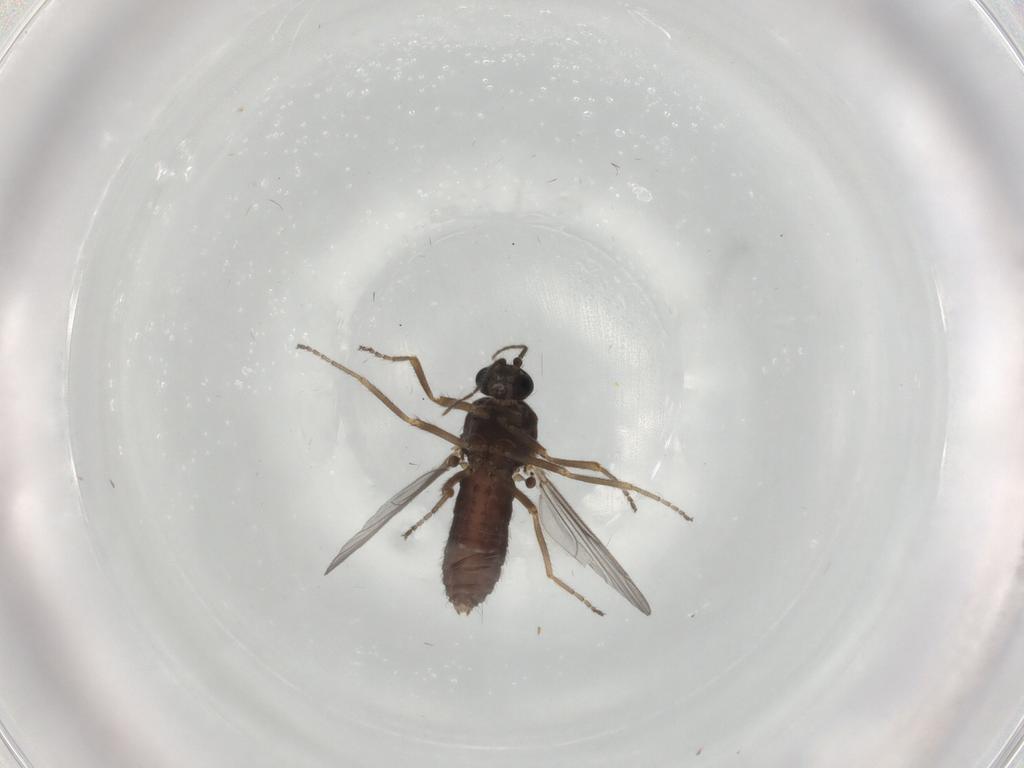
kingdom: Animalia
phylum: Arthropoda
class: Insecta
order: Diptera
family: Ceratopogonidae
